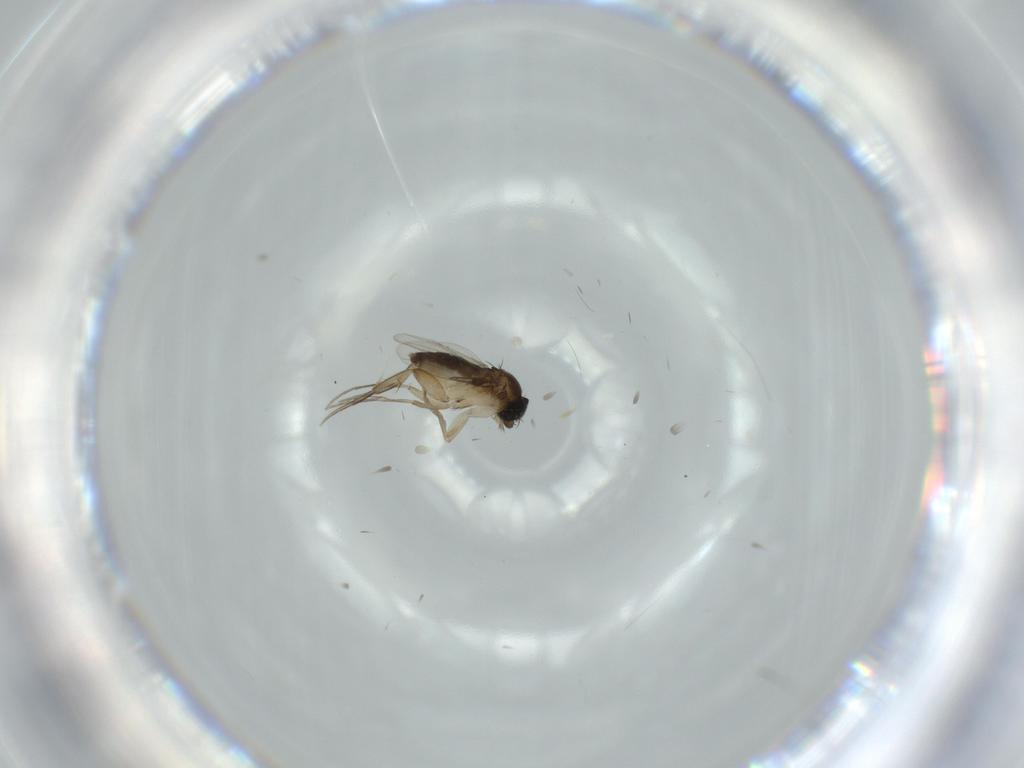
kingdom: Animalia
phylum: Arthropoda
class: Insecta
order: Diptera
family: Phoridae
